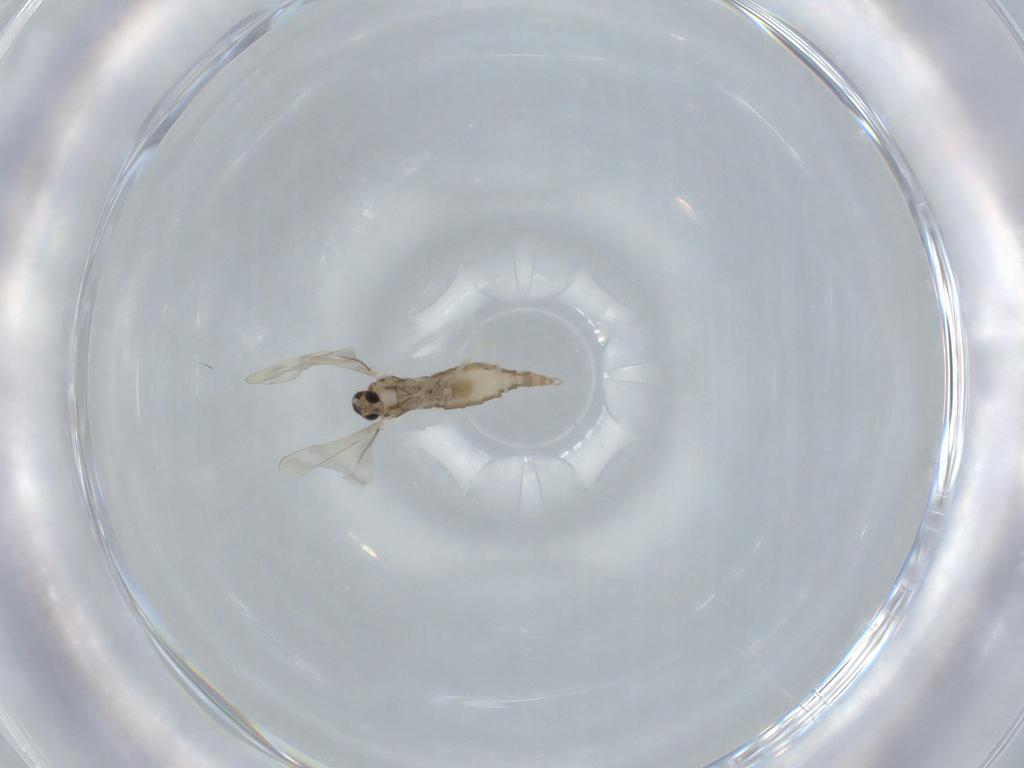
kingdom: Animalia
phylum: Arthropoda
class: Insecta
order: Diptera
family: Cecidomyiidae
